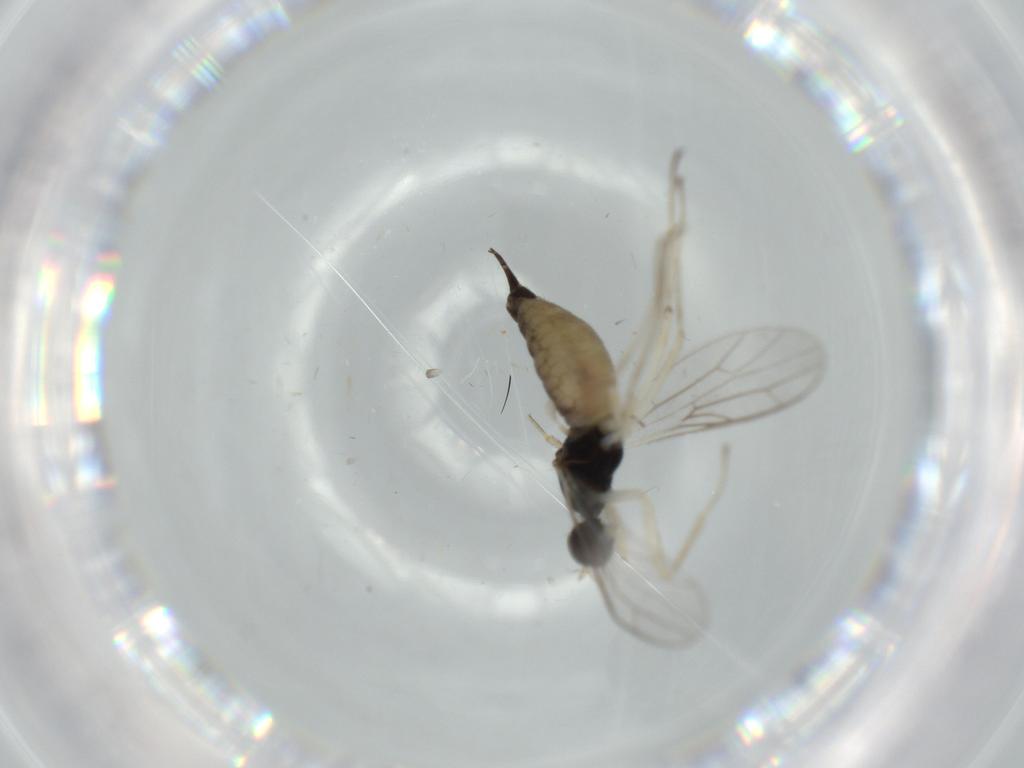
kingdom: Animalia
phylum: Arthropoda
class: Insecta
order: Diptera
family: Empididae
